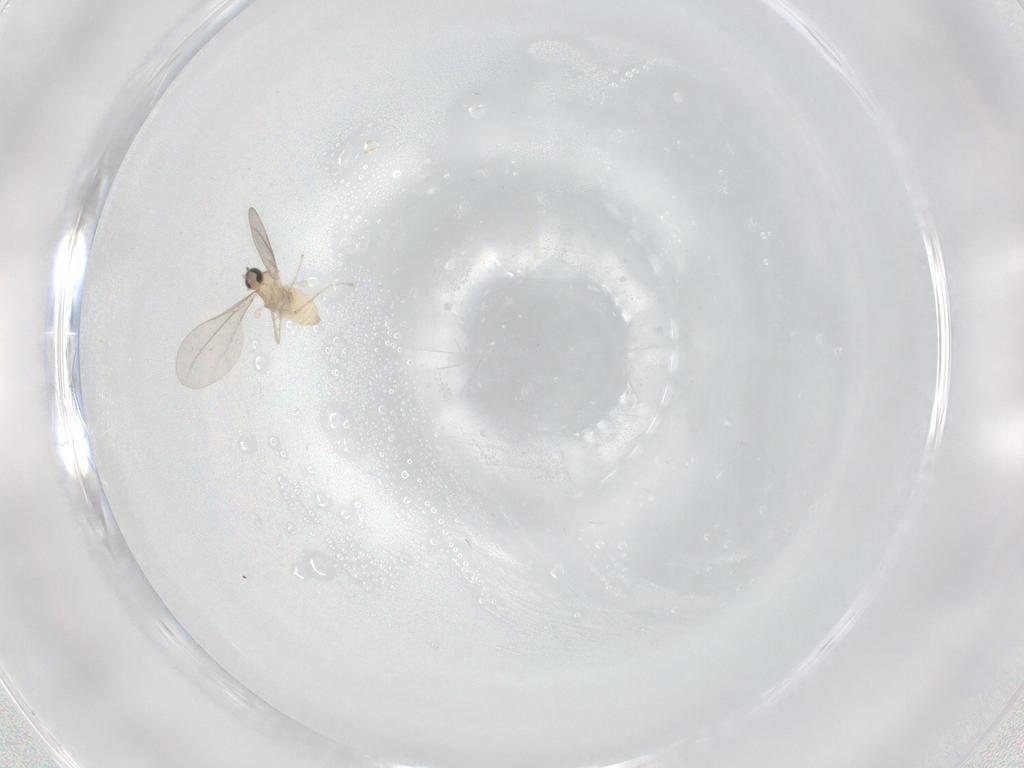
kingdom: Animalia
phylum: Arthropoda
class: Insecta
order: Diptera
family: Cecidomyiidae
